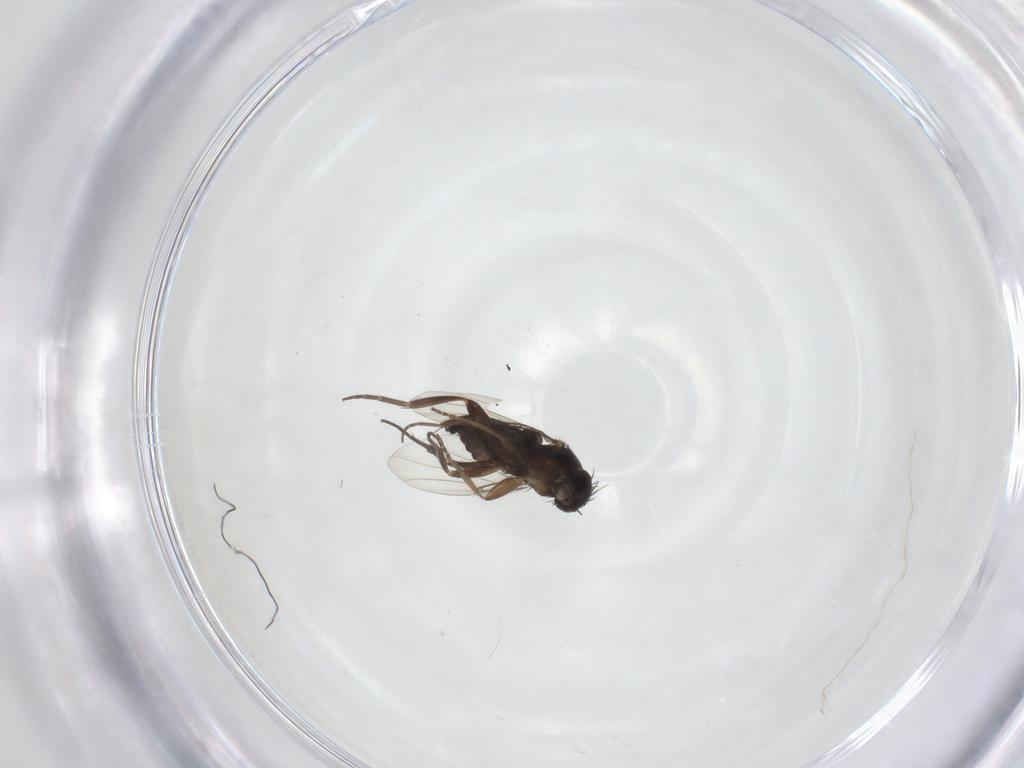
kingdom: Animalia
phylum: Arthropoda
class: Insecta
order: Diptera
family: Phoridae
